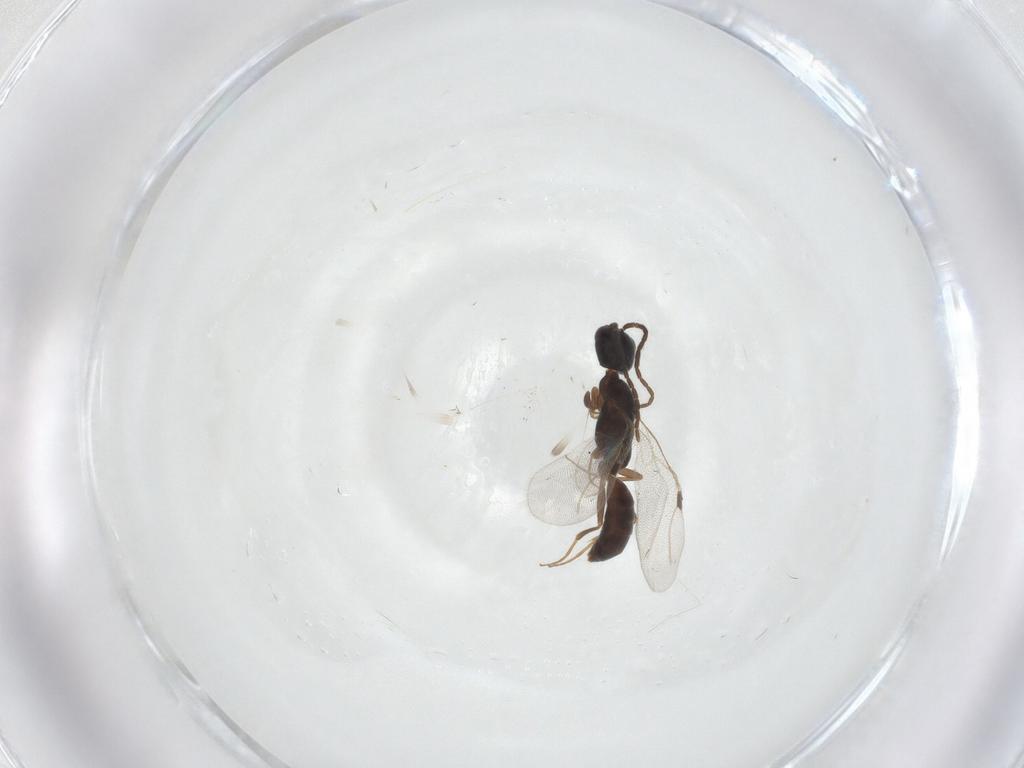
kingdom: Animalia
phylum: Arthropoda
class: Insecta
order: Hymenoptera
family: Bethylidae
